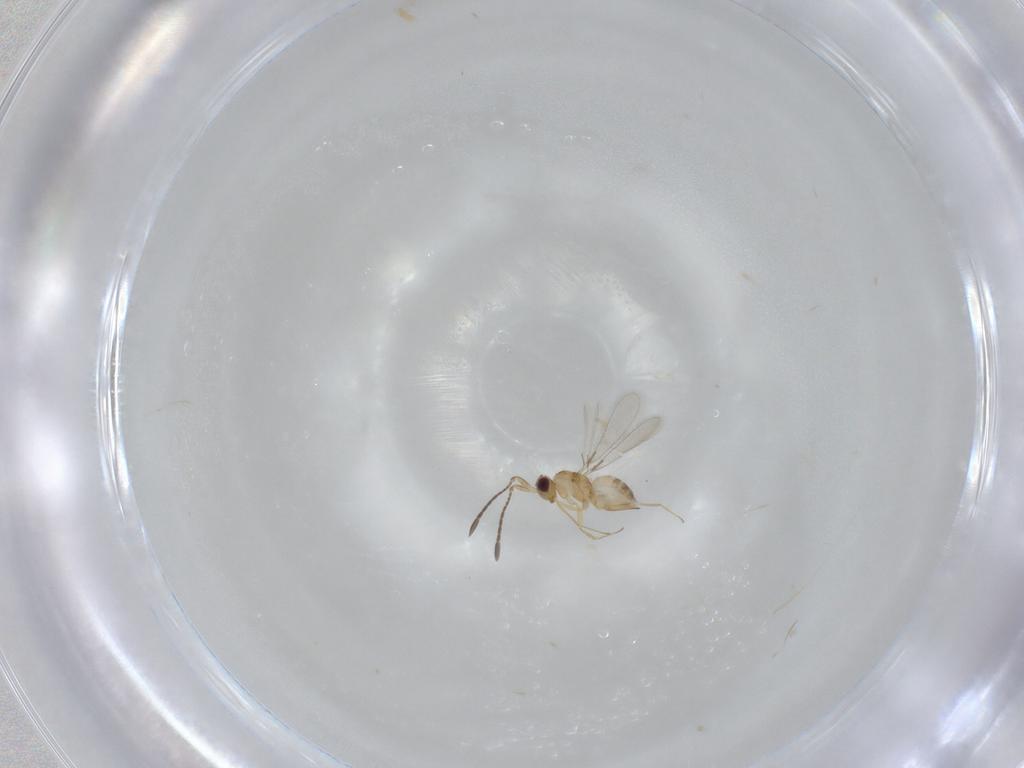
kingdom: Animalia
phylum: Arthropoda
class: Insecta
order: Hymenoptera
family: Mymaridae
